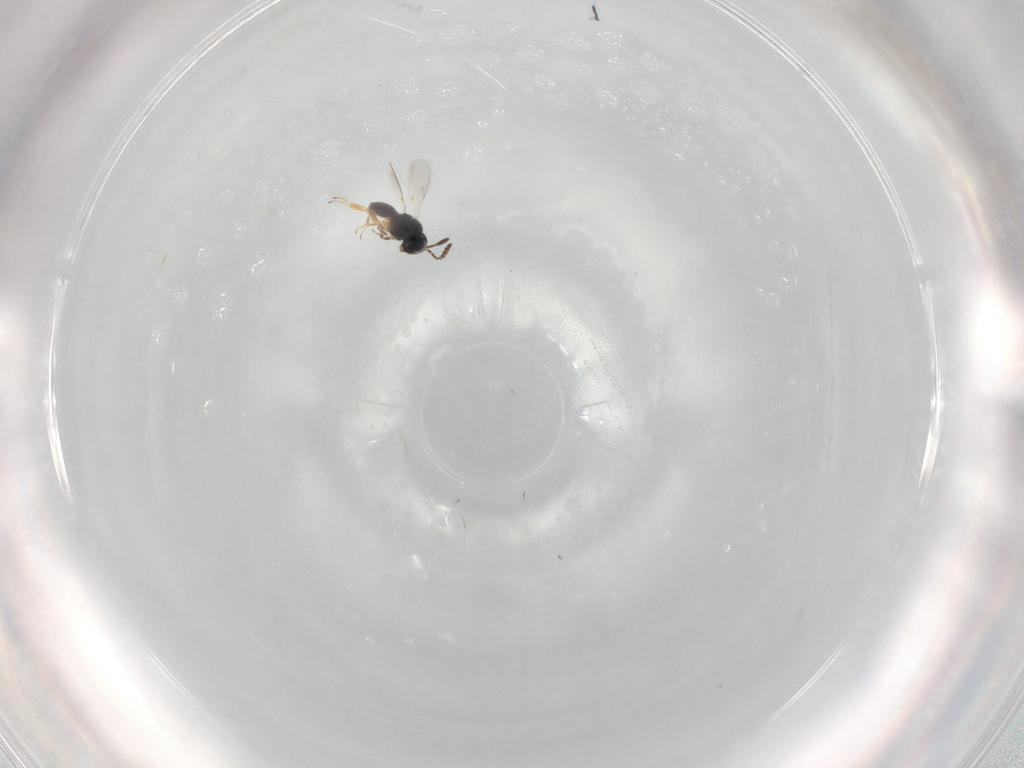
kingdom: Animalia
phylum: Arthropoda
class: Insecta
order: Hymenoptera
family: Scelionidae
